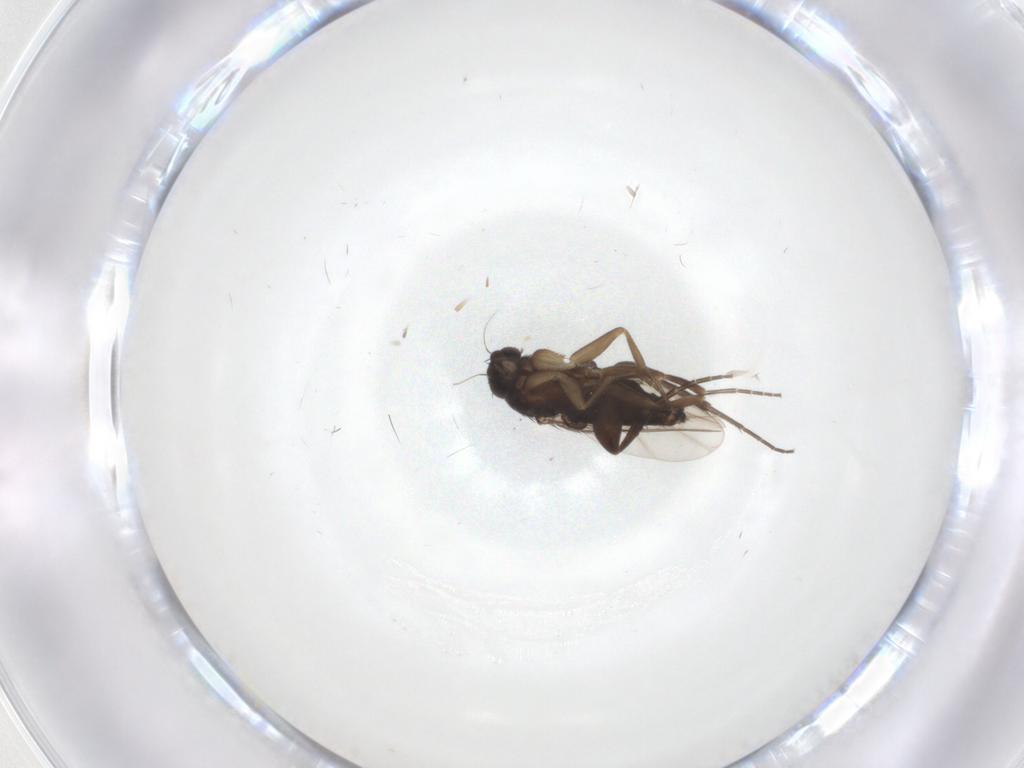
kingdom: Animalia
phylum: Arthropoda
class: Insecta
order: Diptera
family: Phoridae
